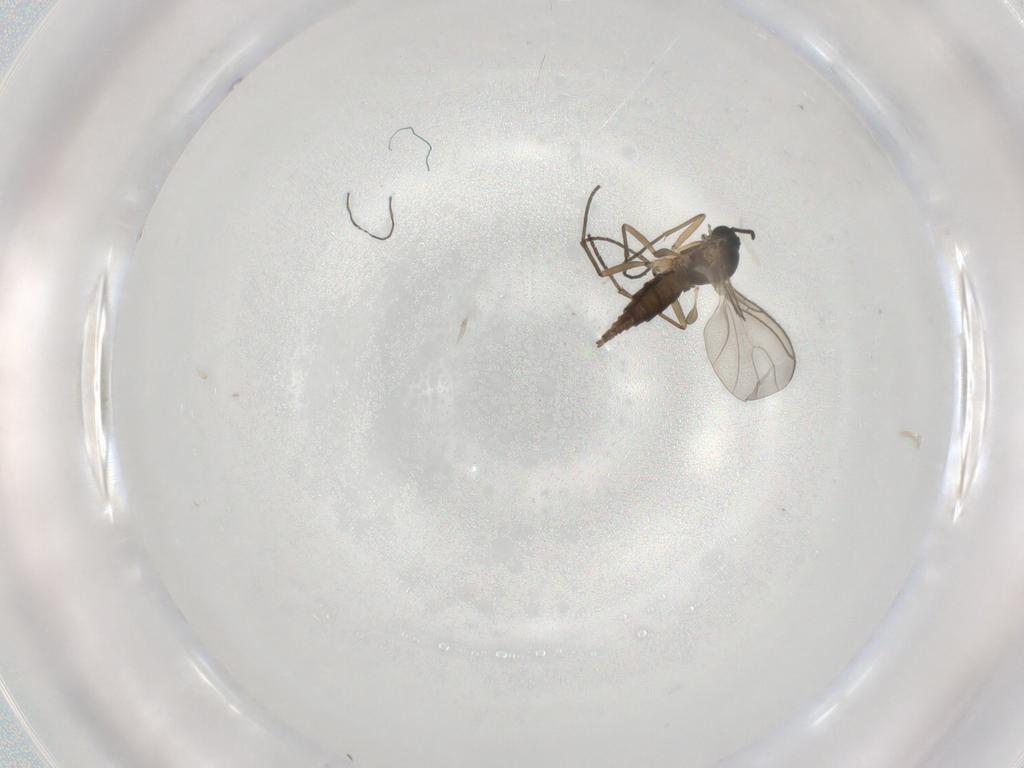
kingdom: Animalia
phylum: Arthropoda
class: Insecta
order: Diptera
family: Sciaridae
